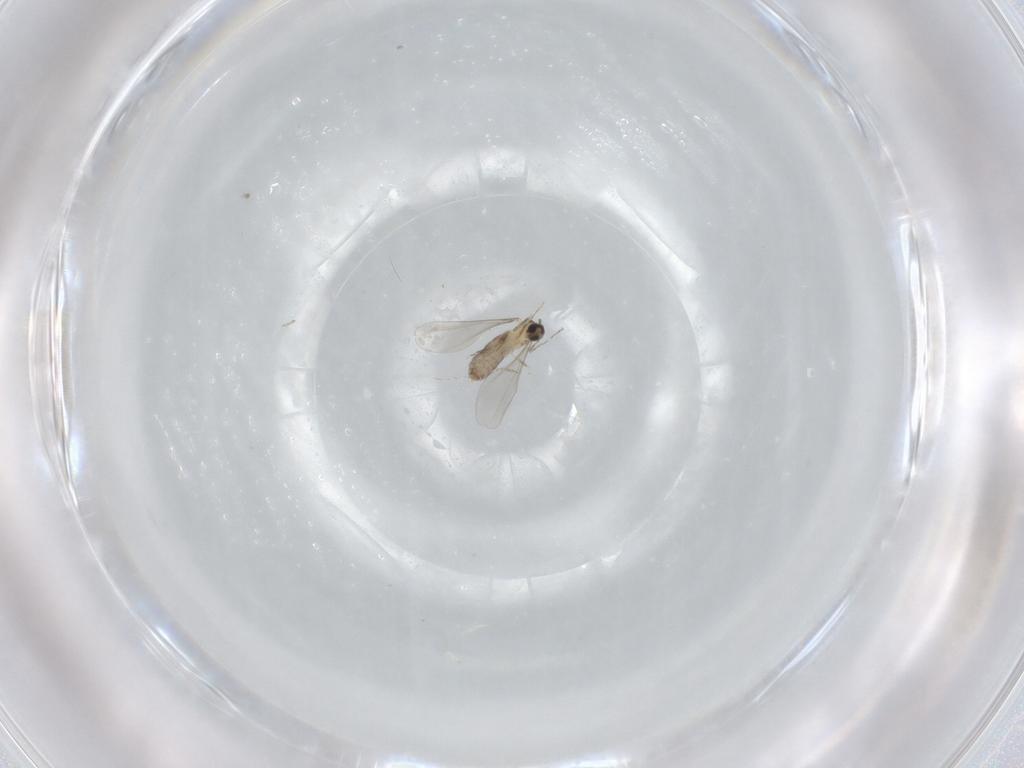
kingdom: Animalia
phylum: Arthropoda
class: Insecta
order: Diptera
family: Cecidomyiidae
